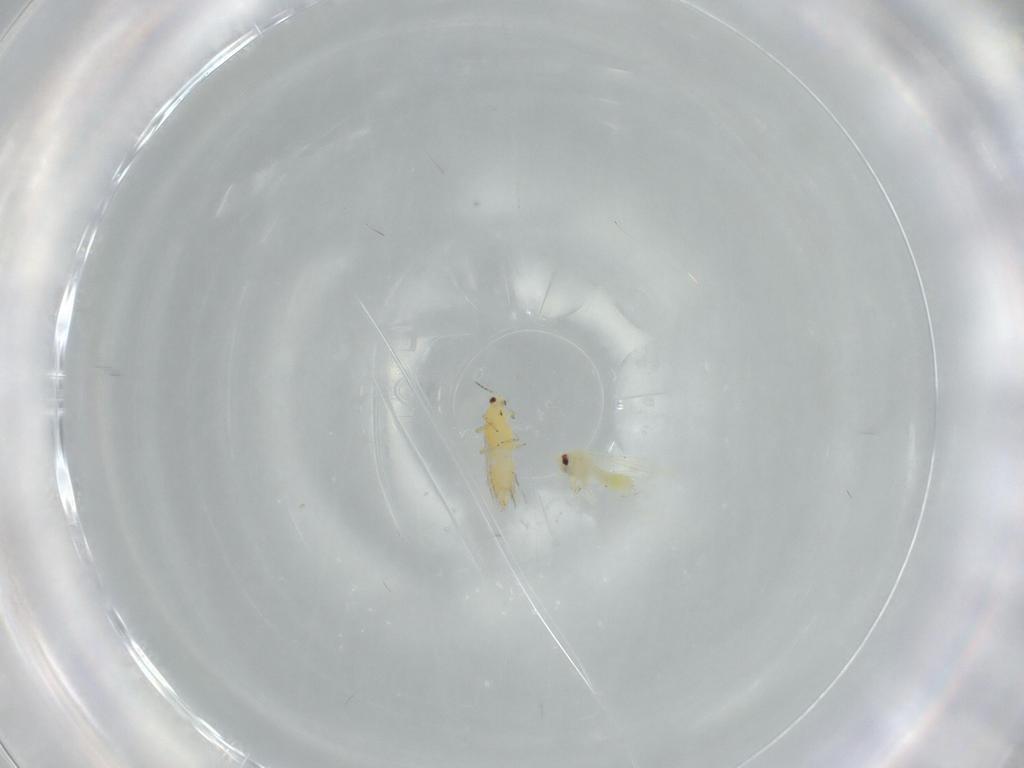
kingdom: Animalia
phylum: Arthropoda
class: Insecta
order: Hemiptera
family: Aleyrodidae
